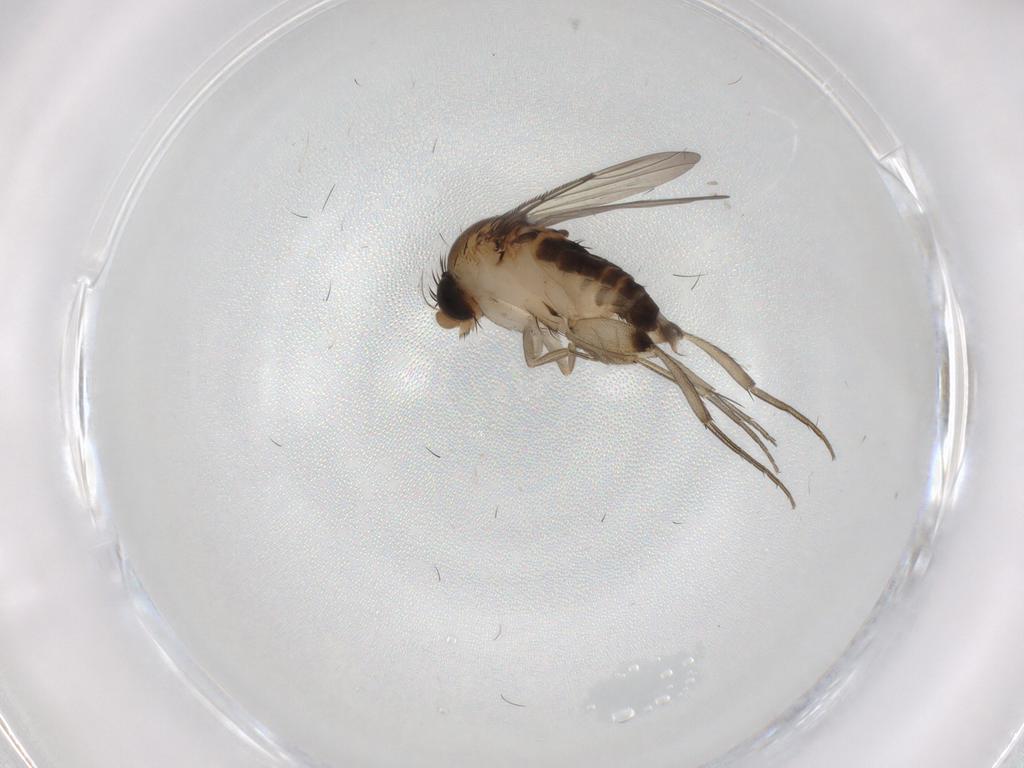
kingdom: Animalia
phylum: Arthropoda
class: Insecta
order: Diptera
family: Phoridae
